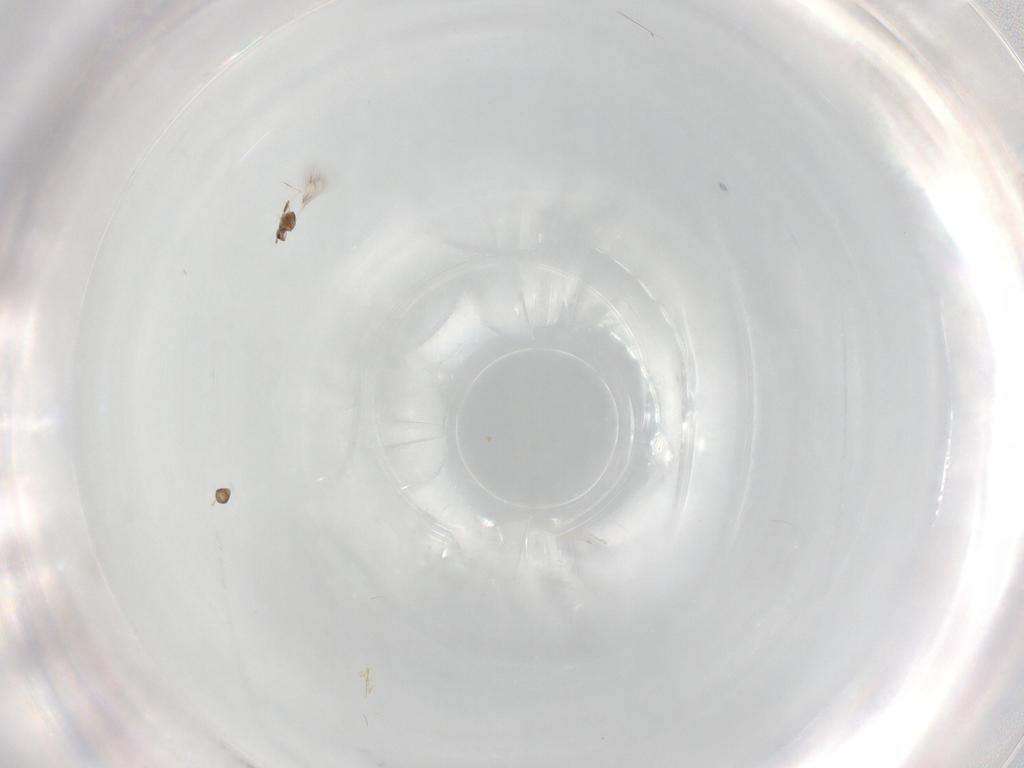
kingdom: Animalia
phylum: Arthropoda
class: Insecta
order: Hymenoptera
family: Mymarommatidae
